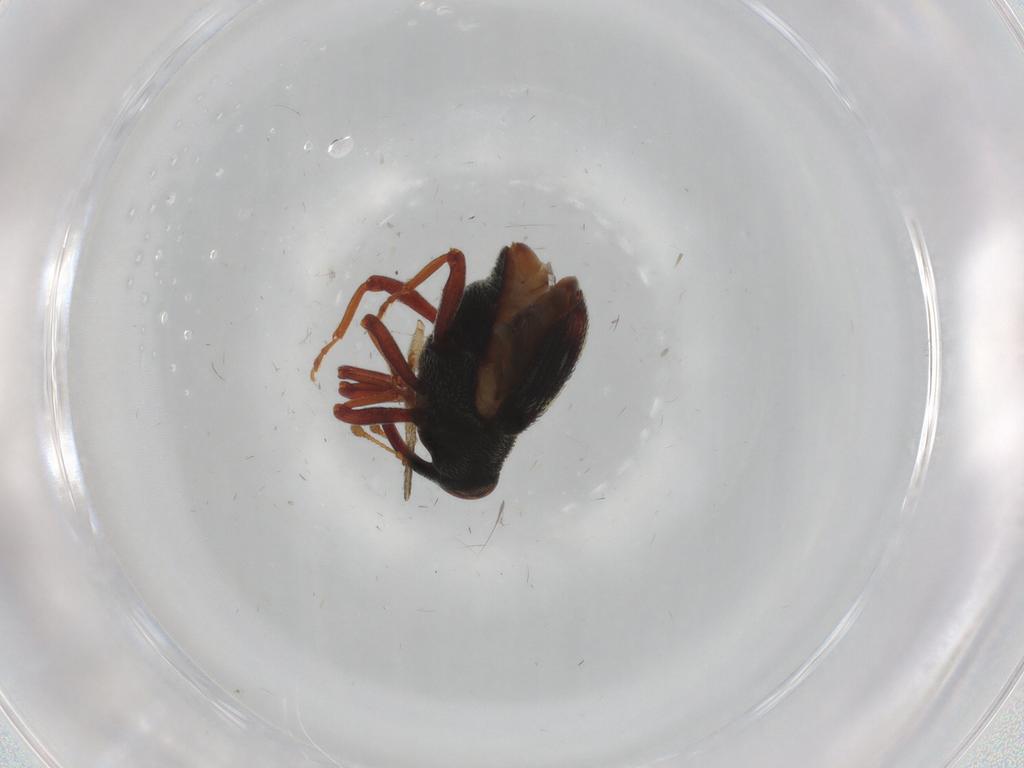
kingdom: Animalia
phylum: Arthropoda
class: Insecta
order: Coleoptera
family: Curculionidae
